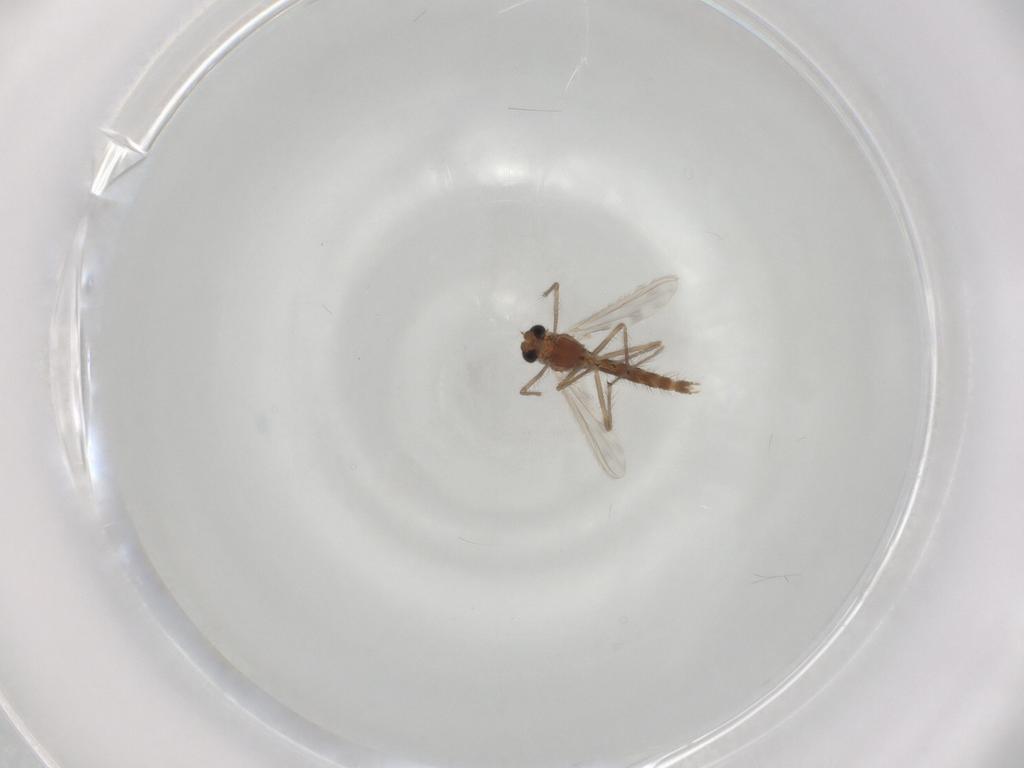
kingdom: Animalia
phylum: Arthropoda
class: Insecta
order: Diptera
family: Chironomidae
